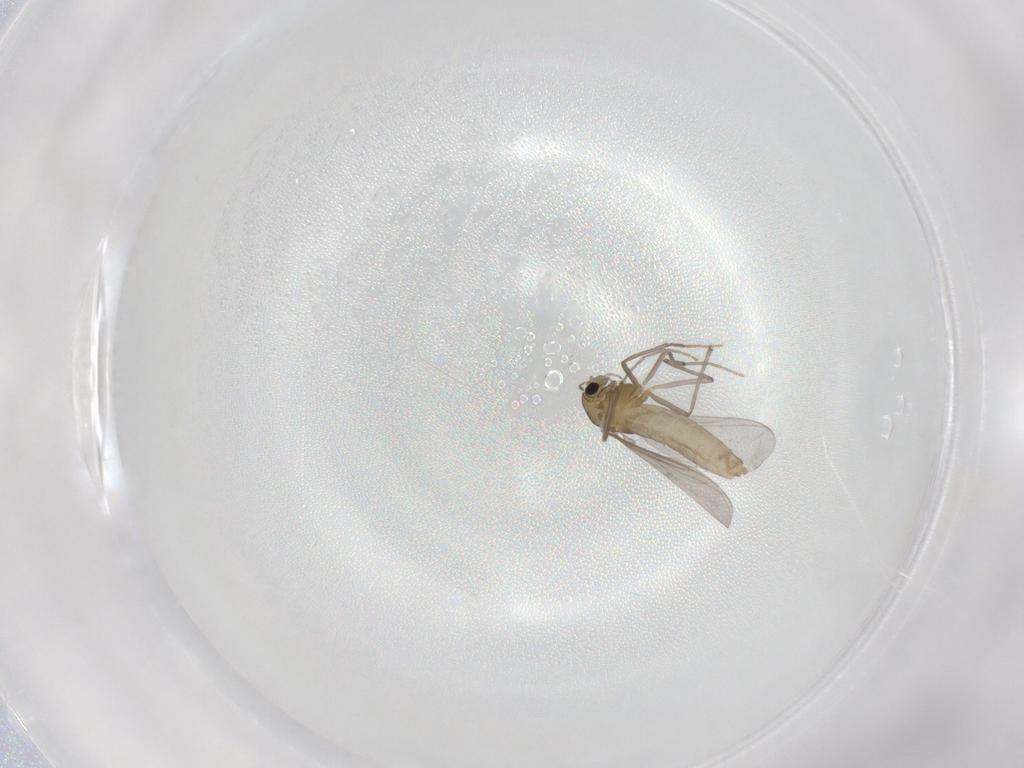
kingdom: Animalia
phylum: Arthropoda
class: Insecta
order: Diptera
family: Chironomidae
